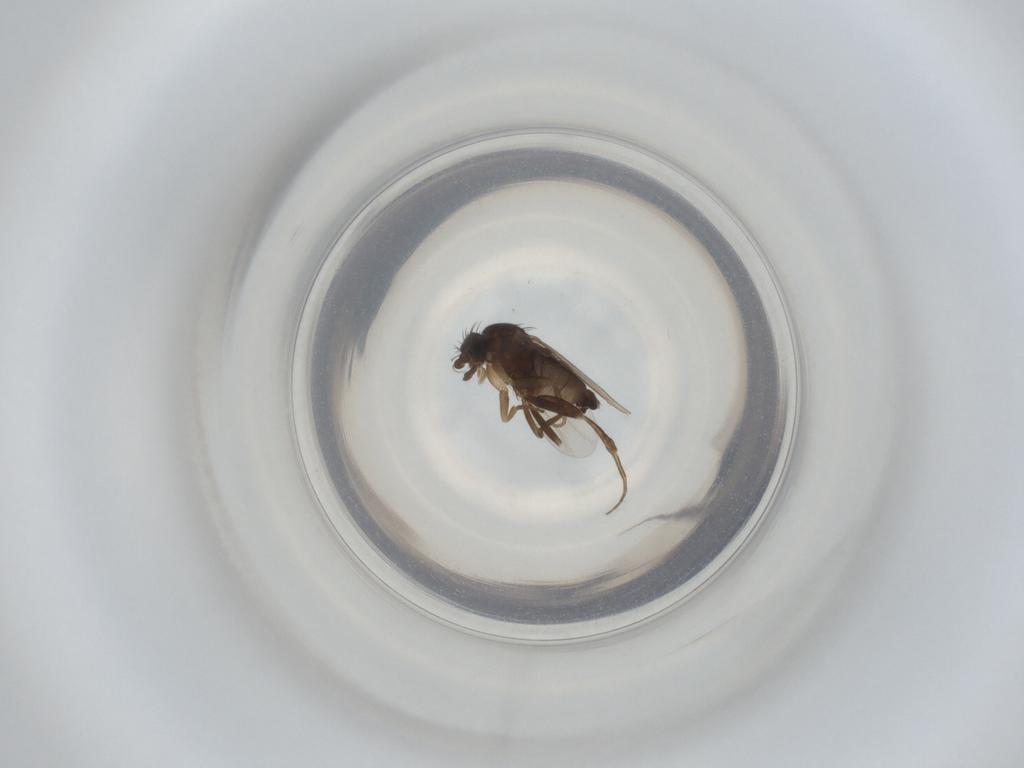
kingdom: Animalia
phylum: Arthropoda
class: Insecta
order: Diptera
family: Phoridae
